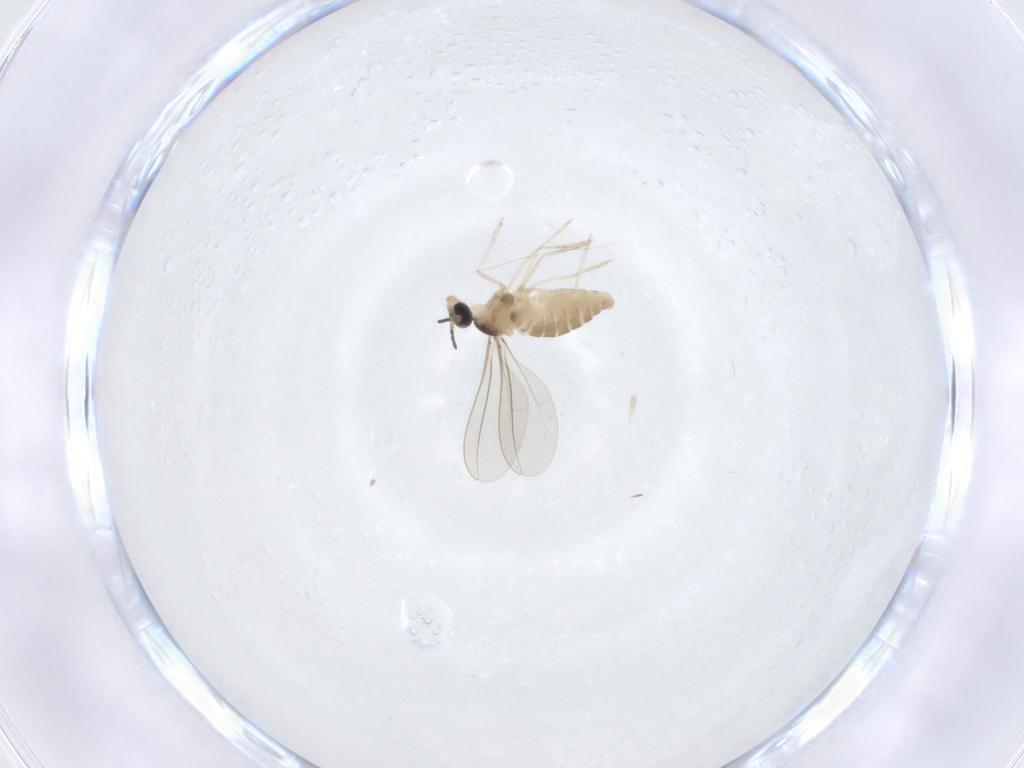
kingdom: Animalia
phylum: Arthropoda
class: Insecta
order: Diptera
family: Cecidomyiidae
